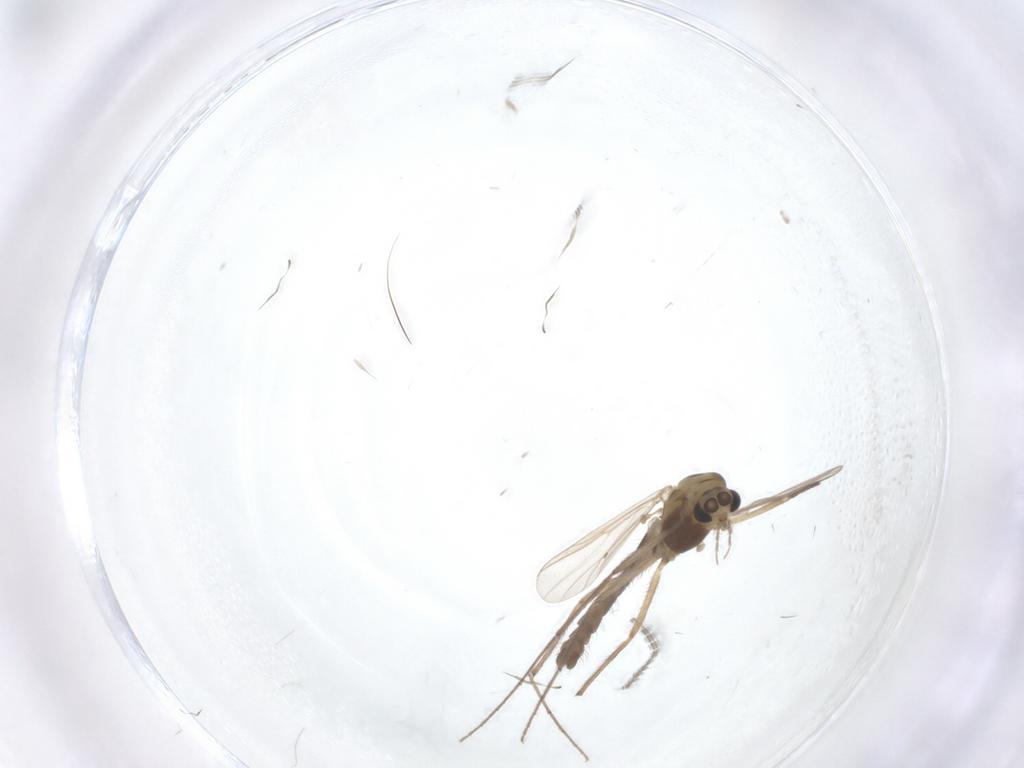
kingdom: Animalia
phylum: Arthropoda
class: Insecta
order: Diptera
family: Chironomidae
